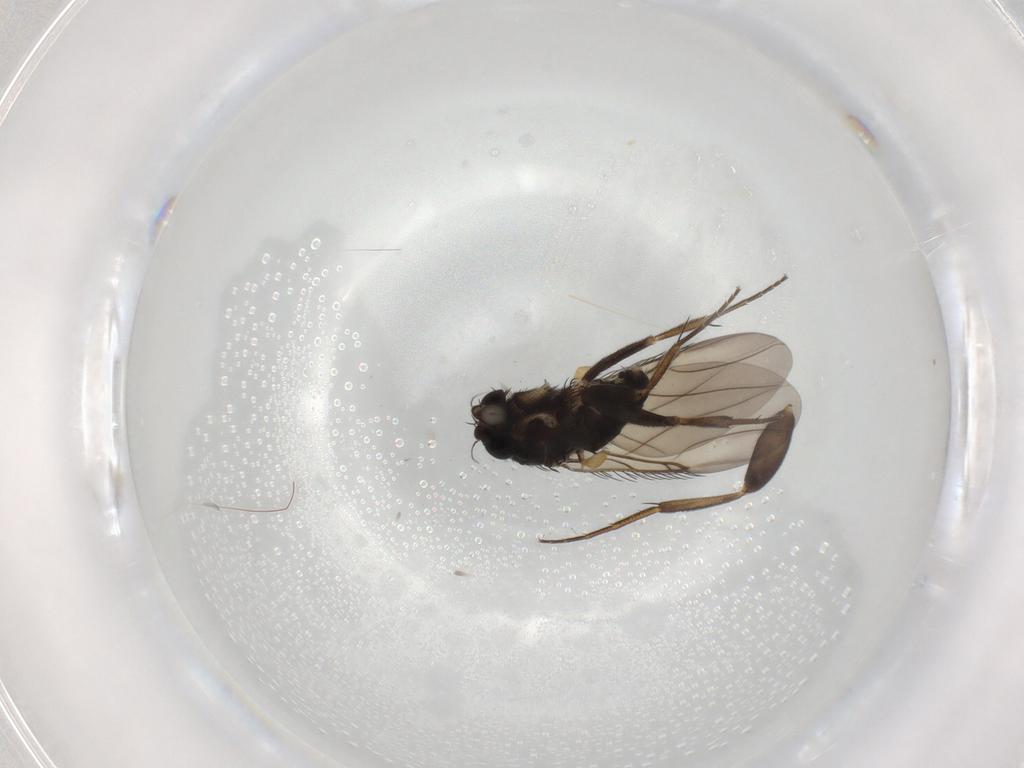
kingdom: Animalia
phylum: Arthropoda
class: Insecta
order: Diptera
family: Phoridae
